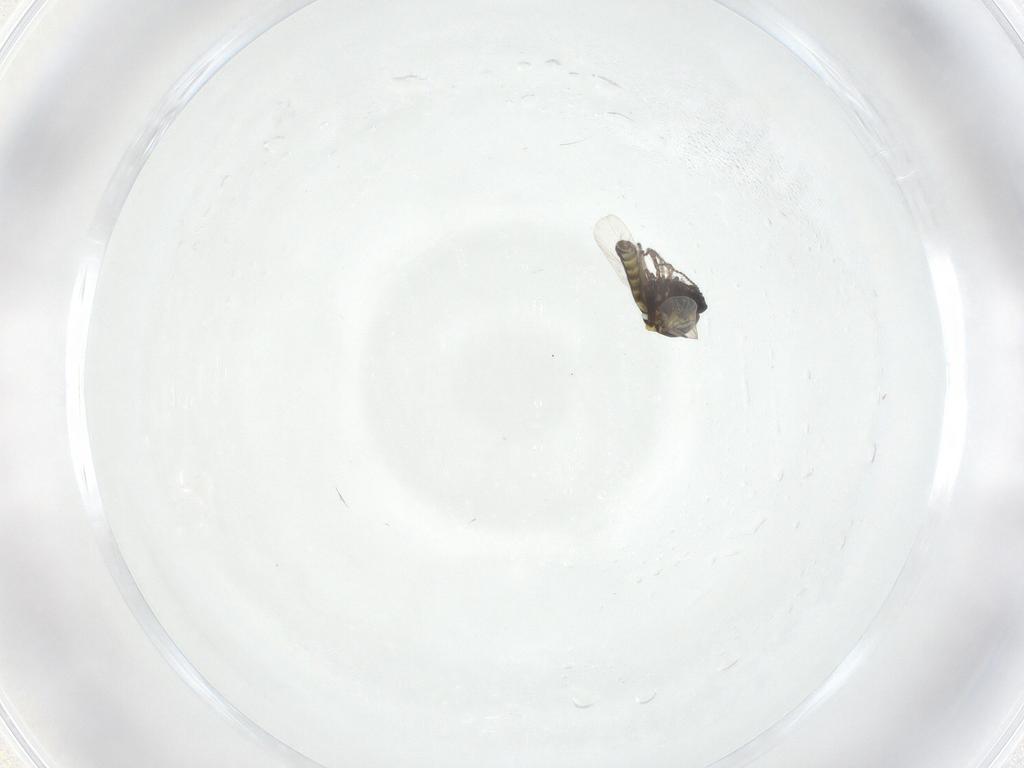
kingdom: Animalia
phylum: Arthropoda
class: Insecta
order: Diptera
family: Ceratopogonidae
